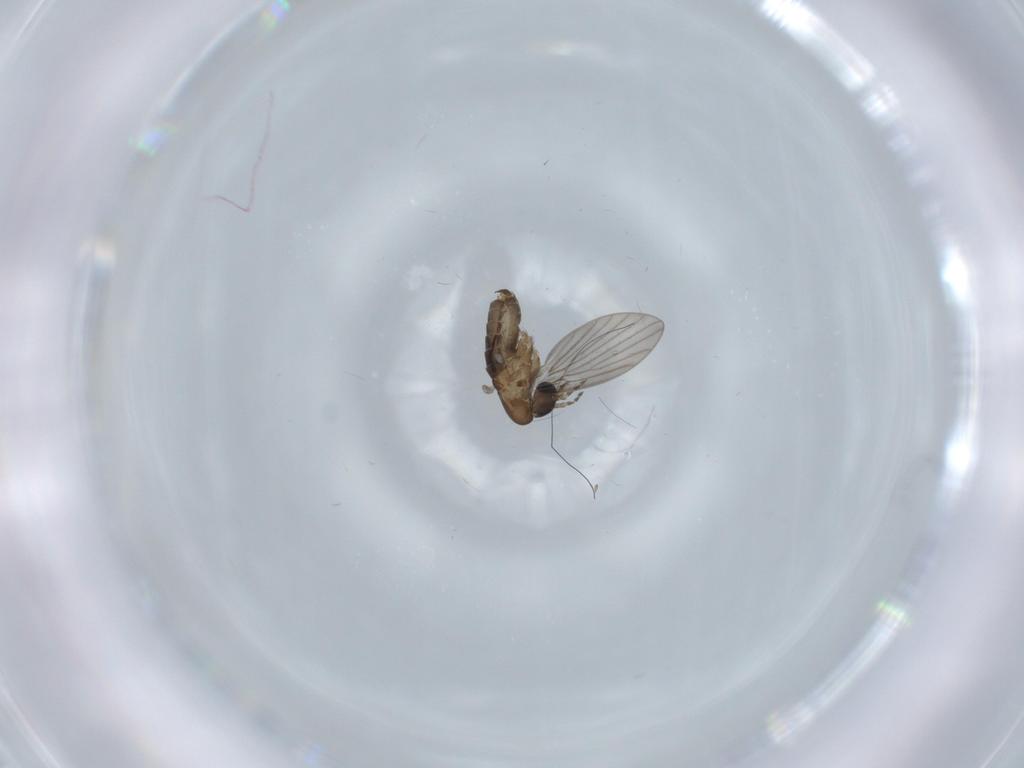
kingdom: Animalia
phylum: Arthropoda
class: Insecta
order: Diptera
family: Psychodidae
